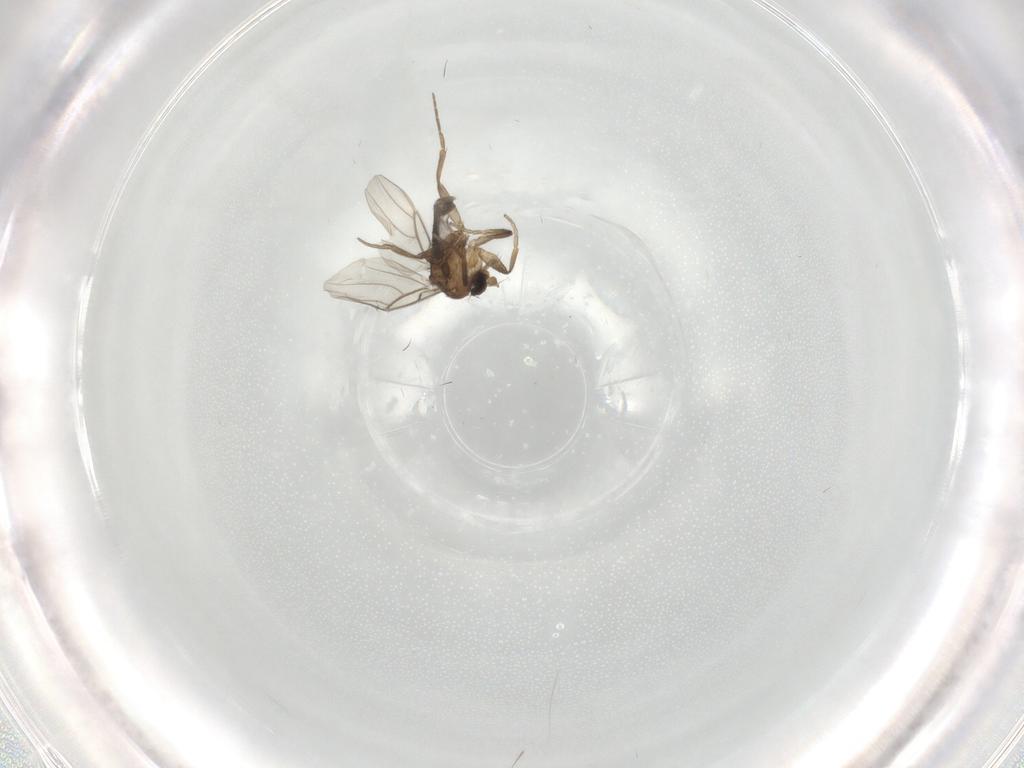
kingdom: Animalia
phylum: Arthropoda
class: Insecta
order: Diptera
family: Phoridae
